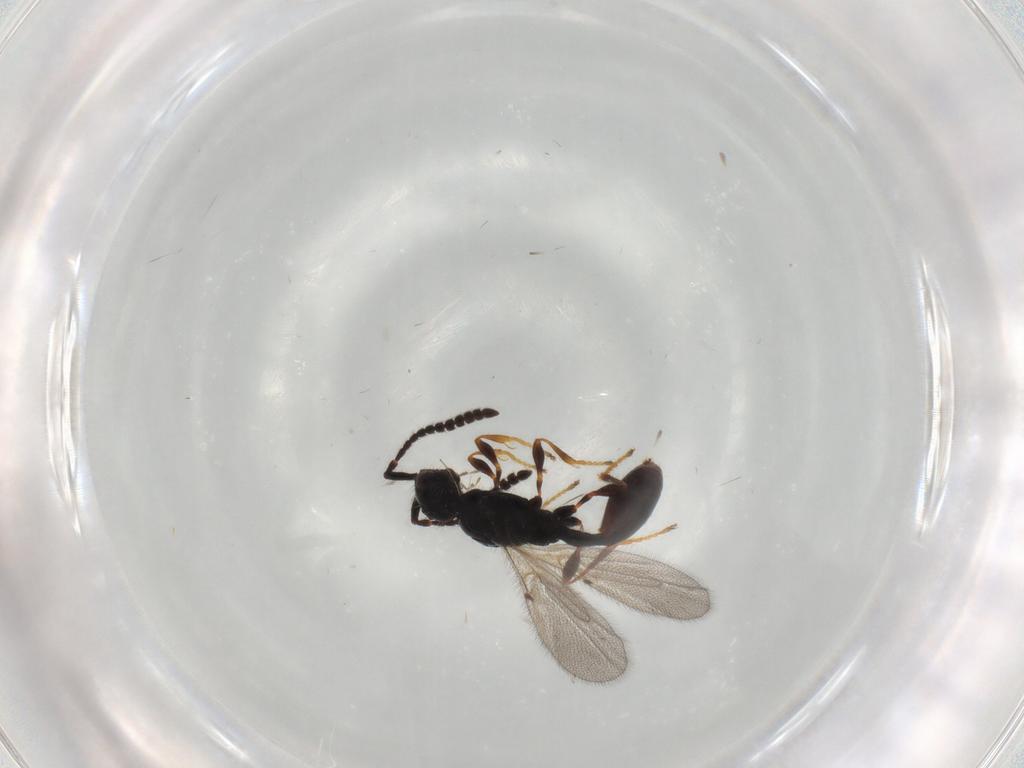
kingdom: Animalia
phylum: Arthropoda
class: Insecta
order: Hymenoptera
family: Diapriidae
